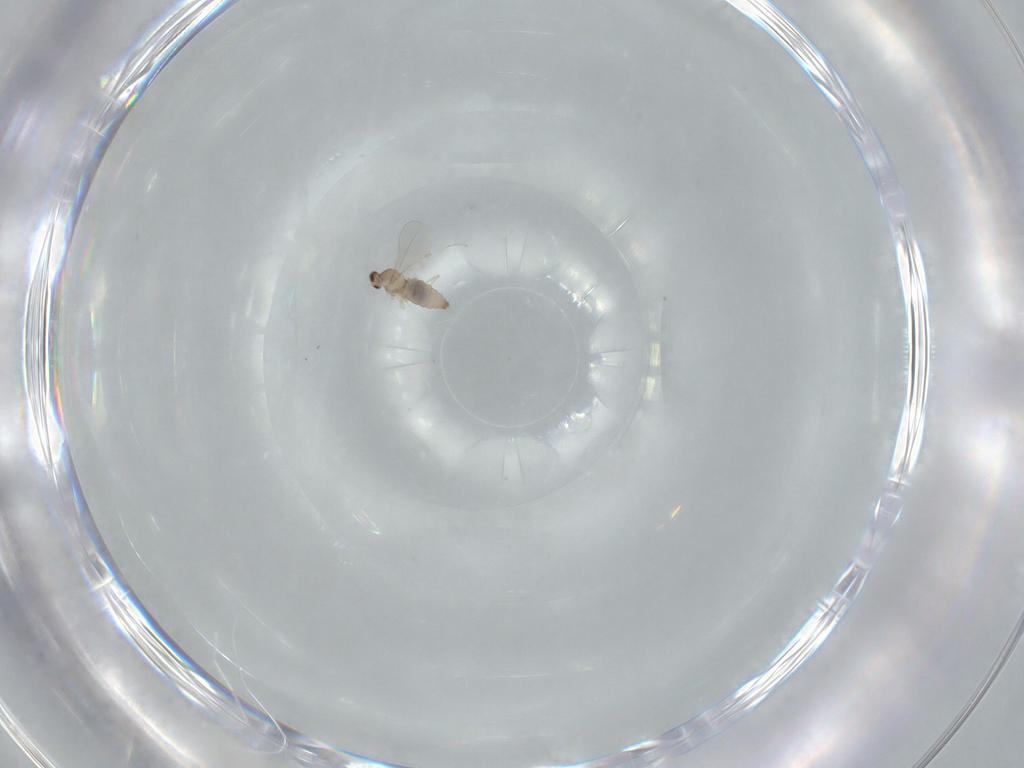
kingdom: Animalia
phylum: Arthropoda
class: Insecta
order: Diptera
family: Cecidomyiidae
